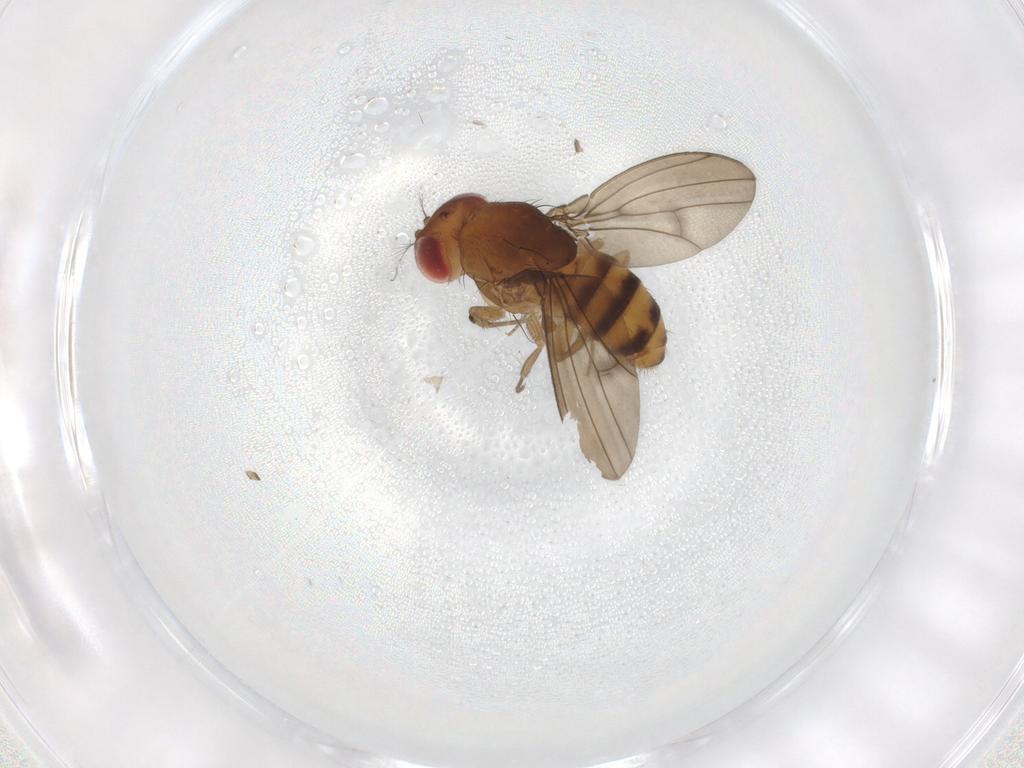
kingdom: Animalia
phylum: Arthropoda
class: Insecta
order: Diptera
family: Drosophilidae
